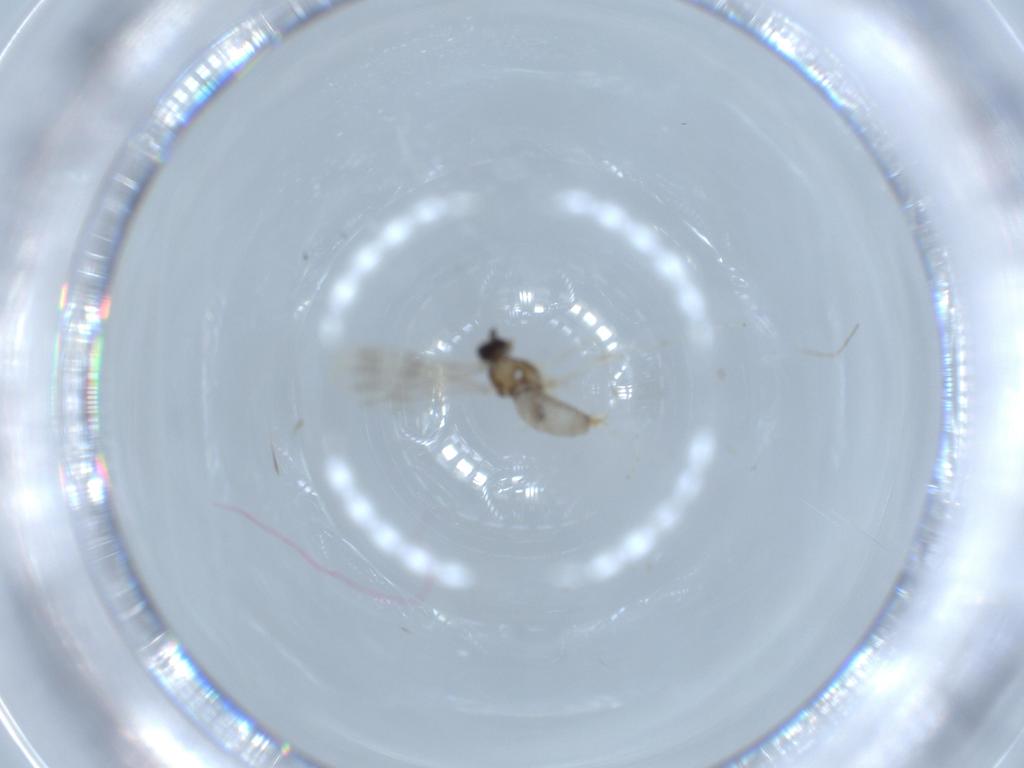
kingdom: Animalia
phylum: Arthropoda
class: Insecta
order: Diptera
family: Cecidomyiidae
